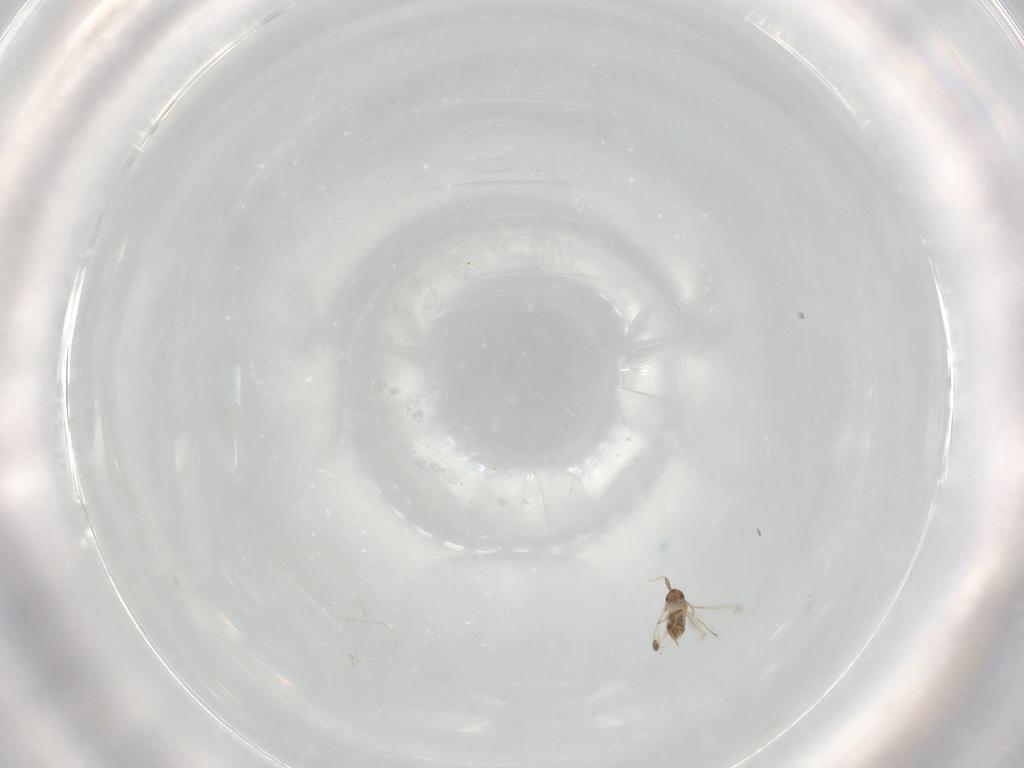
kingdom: Animalia
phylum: Arthropoda
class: Insecta
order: Hymenoptera
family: Mymaridae
